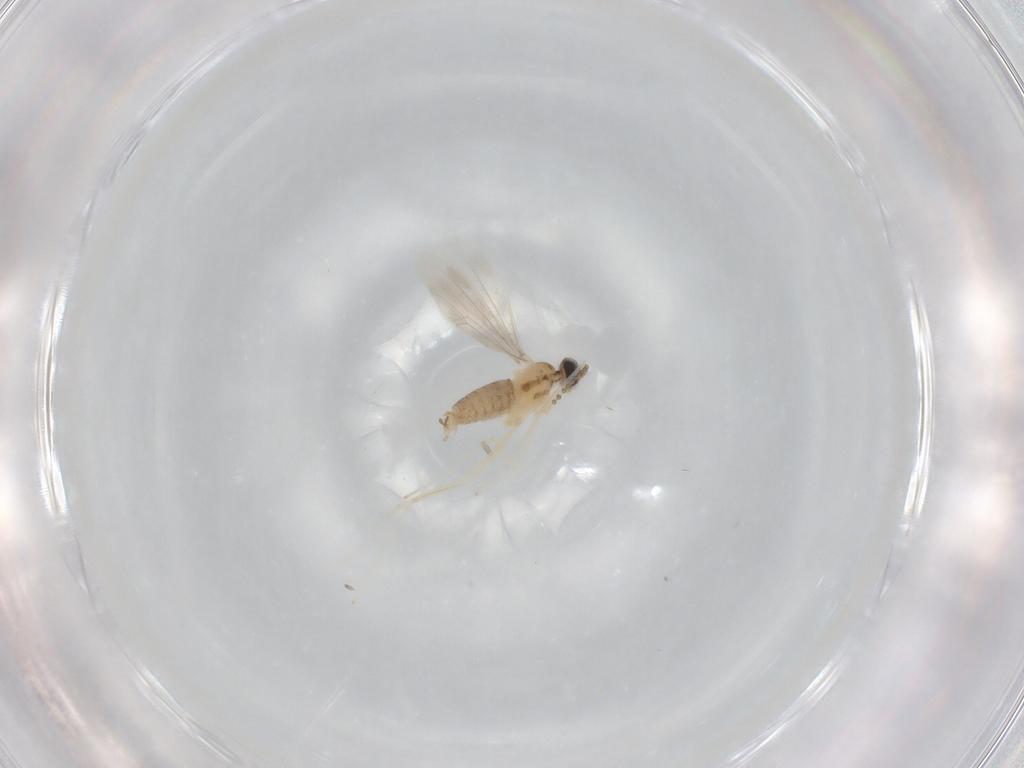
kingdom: Animalia
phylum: Arthropoda
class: Insecta
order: Diptera
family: Cecidomyiidae
